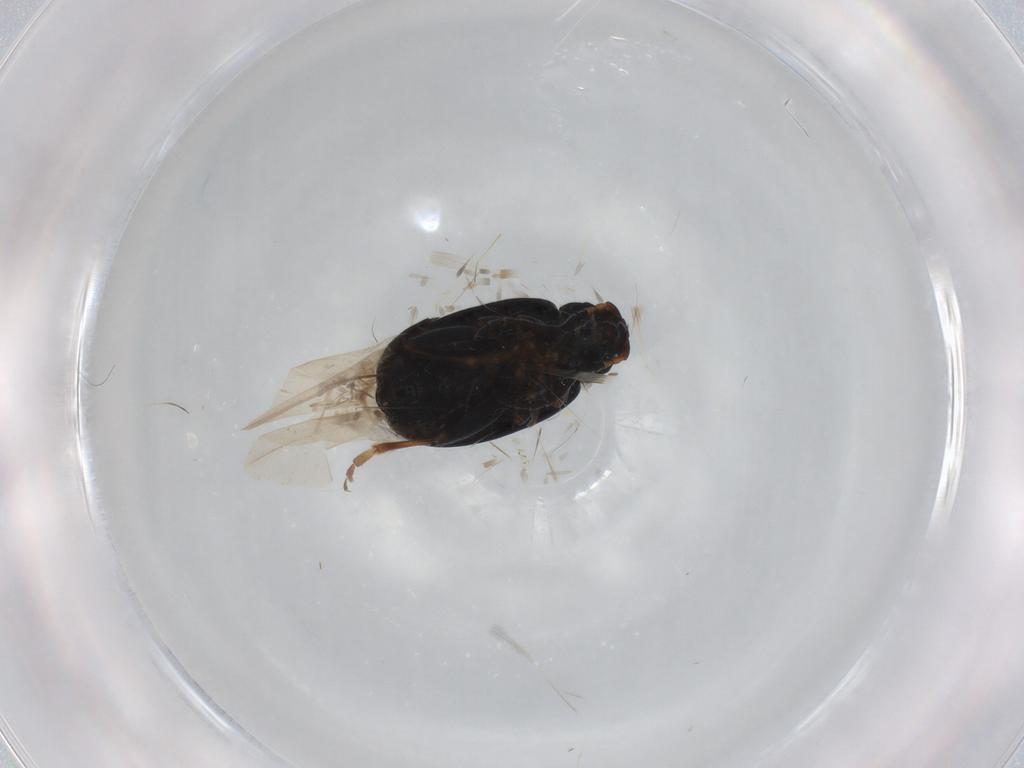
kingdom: Animalia
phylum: Arthropoda
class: Insecta
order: Coleoptera
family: Chrysomelidae
